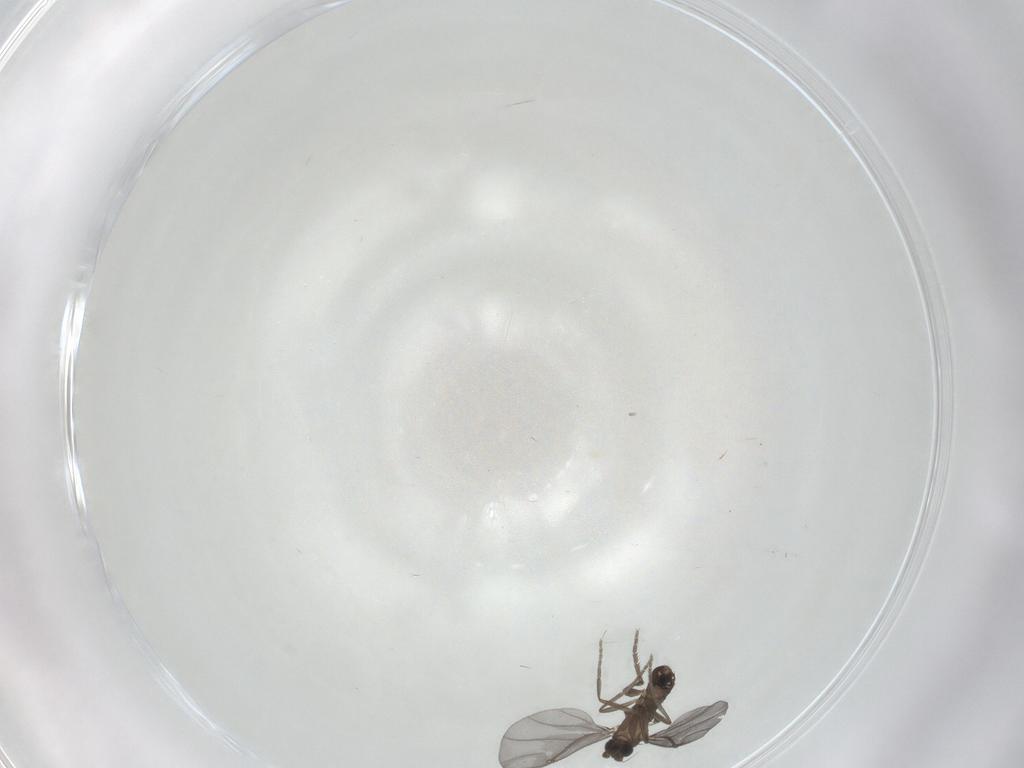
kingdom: Animalia
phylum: Arthropoda
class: Insecta
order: Diptera
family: Phoridae
